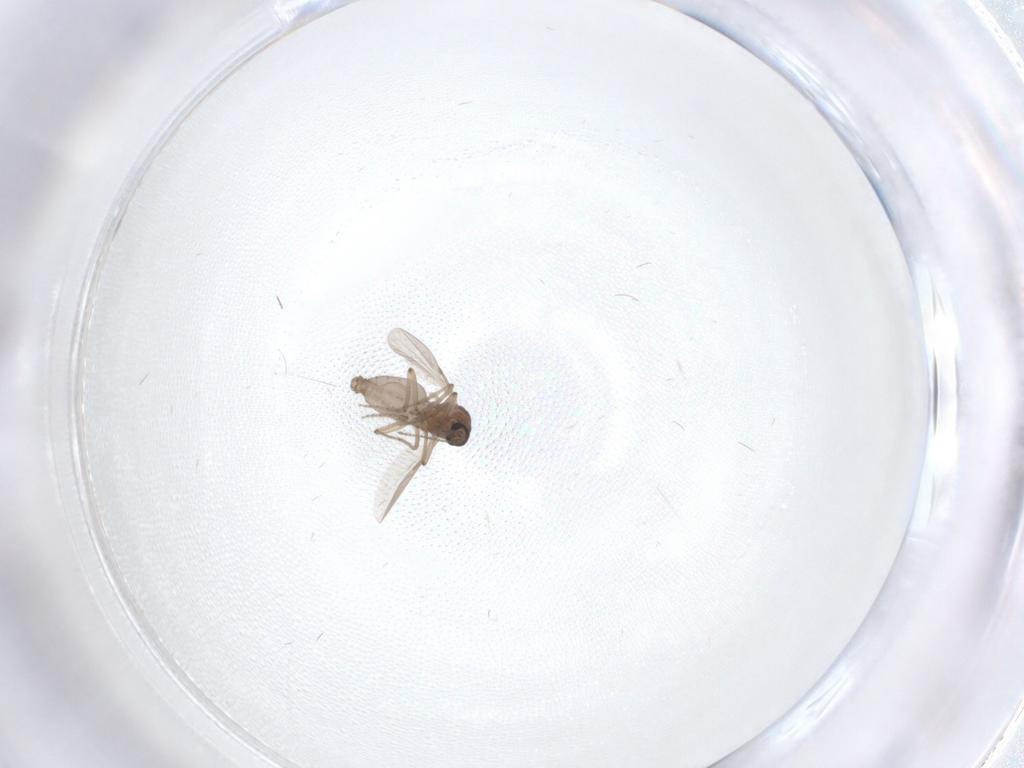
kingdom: Animalia
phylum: Arthropoda
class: Insecta
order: Diptera
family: Ceratopogonidae
